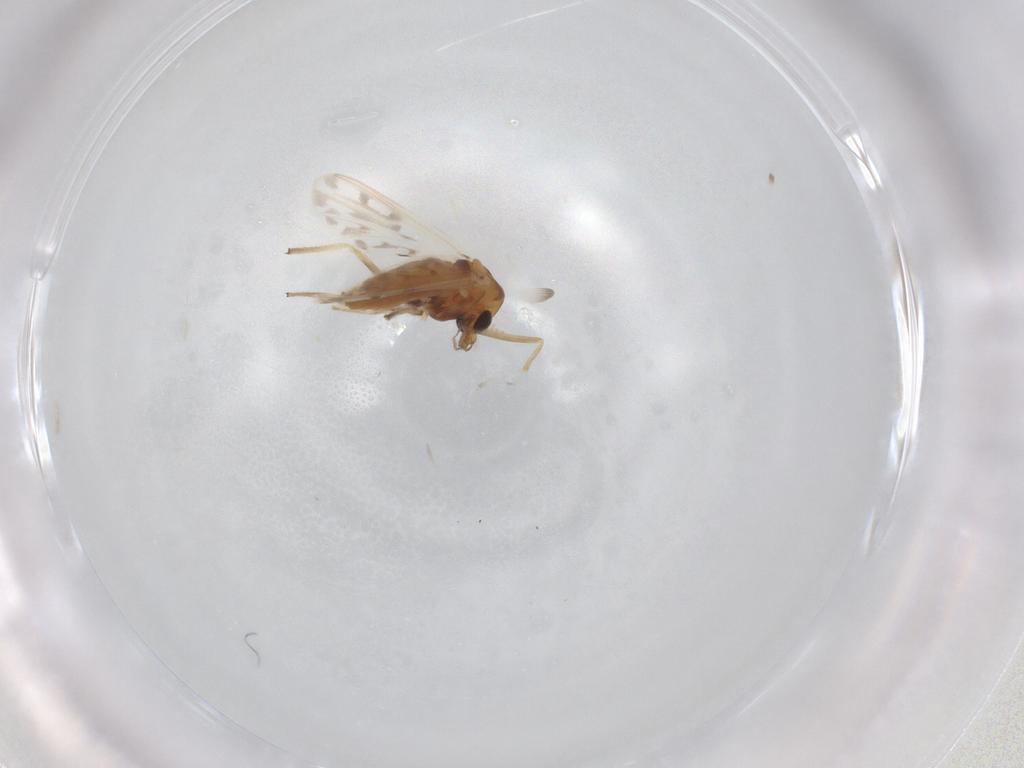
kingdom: Animalia
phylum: Arthropoda
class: Insecta
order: Diptera
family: Chironomidae
